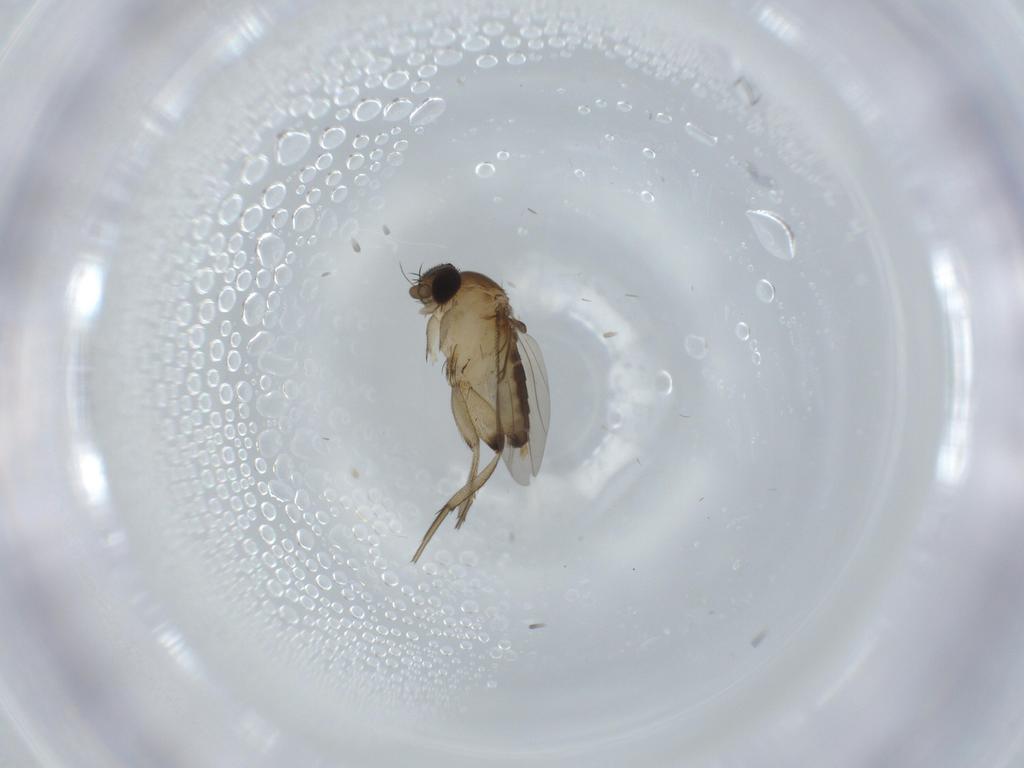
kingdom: Animalia
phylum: Arthropoda
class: Insecta
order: Diptera
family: Phoridae
